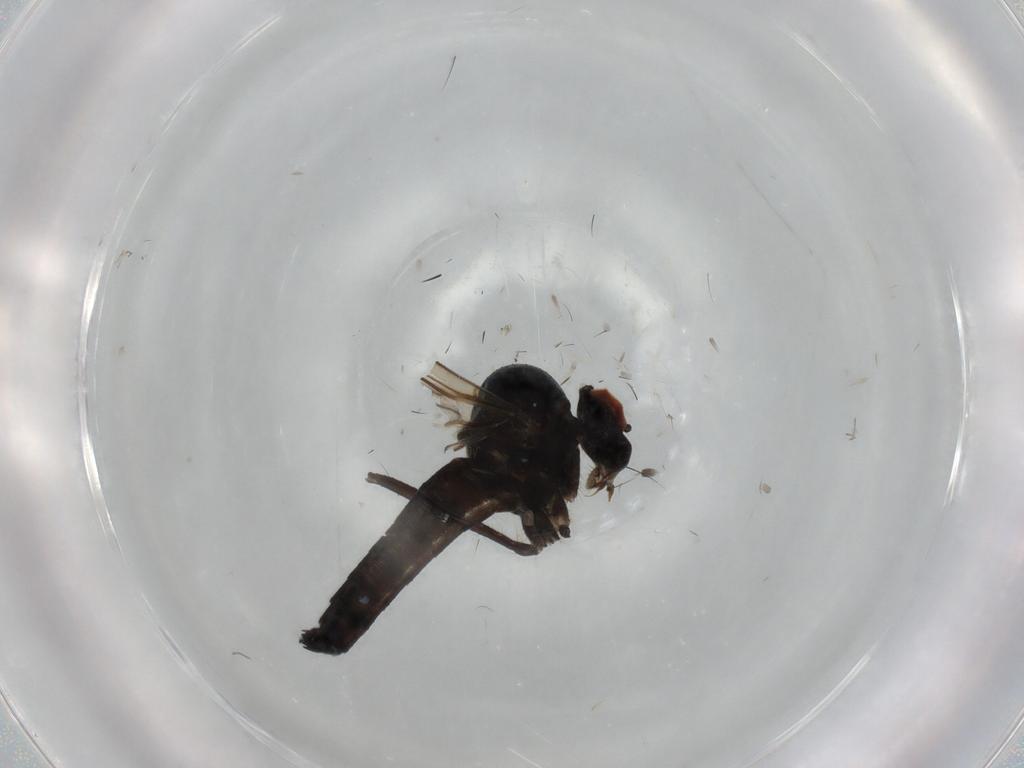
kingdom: Animalia
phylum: Arthropoda
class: Insecta
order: Diptera
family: Hybotidae
